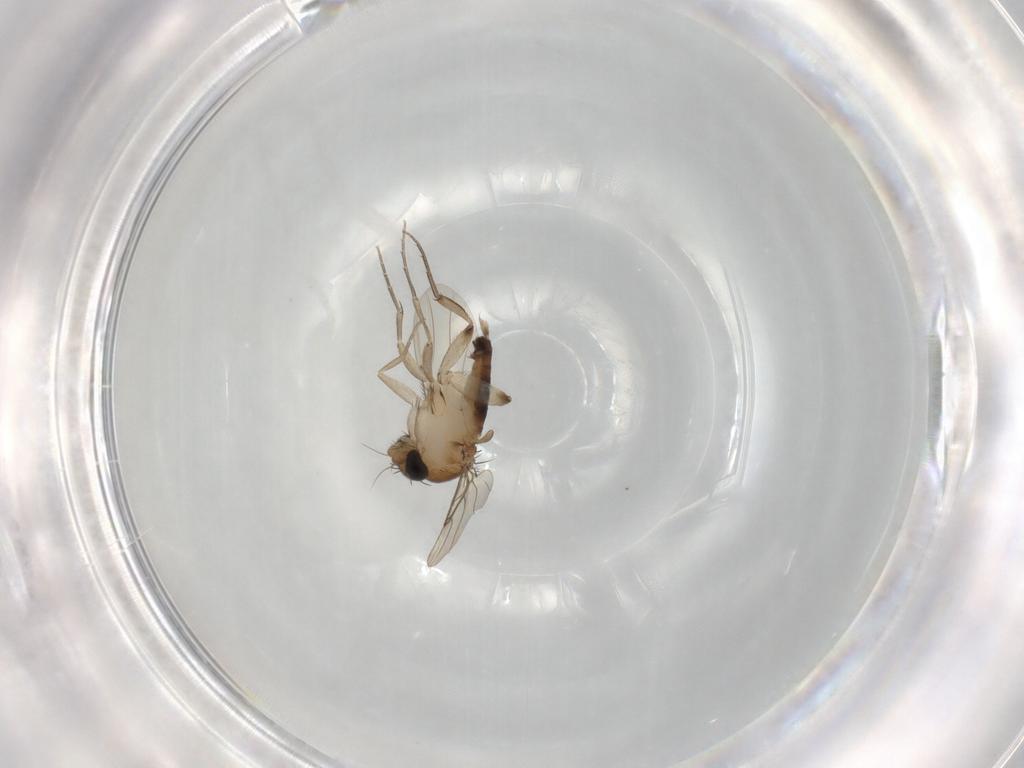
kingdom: Animalia
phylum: Arthropoda
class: Insecta
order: Diptera
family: Phoridae
